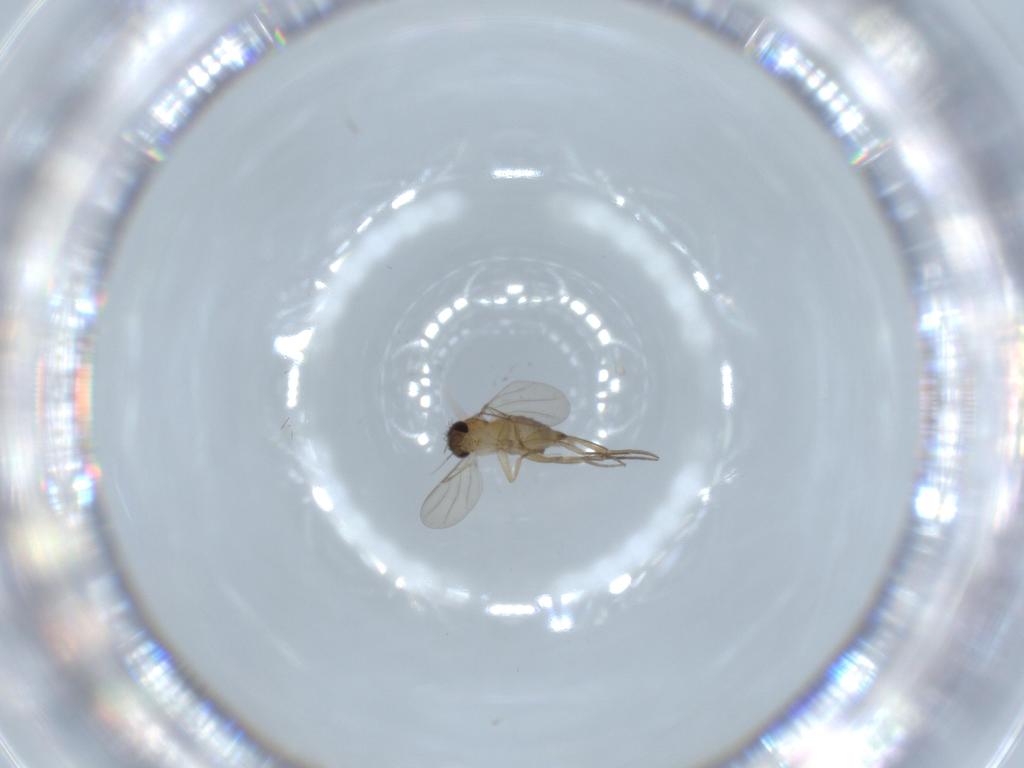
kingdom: Animalia
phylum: Arthropoda
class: Insecta
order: Diptera
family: Phoridae
